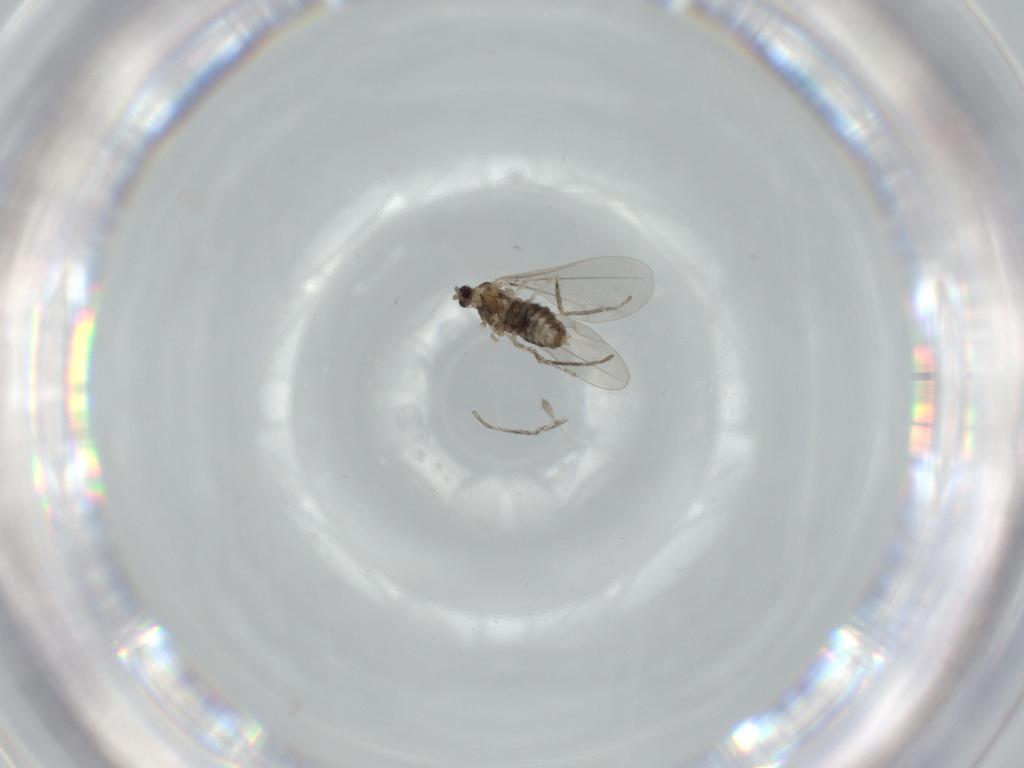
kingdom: Animalia
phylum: Arthropoda
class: Insecta
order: Diptera
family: Cecidomyiidae
